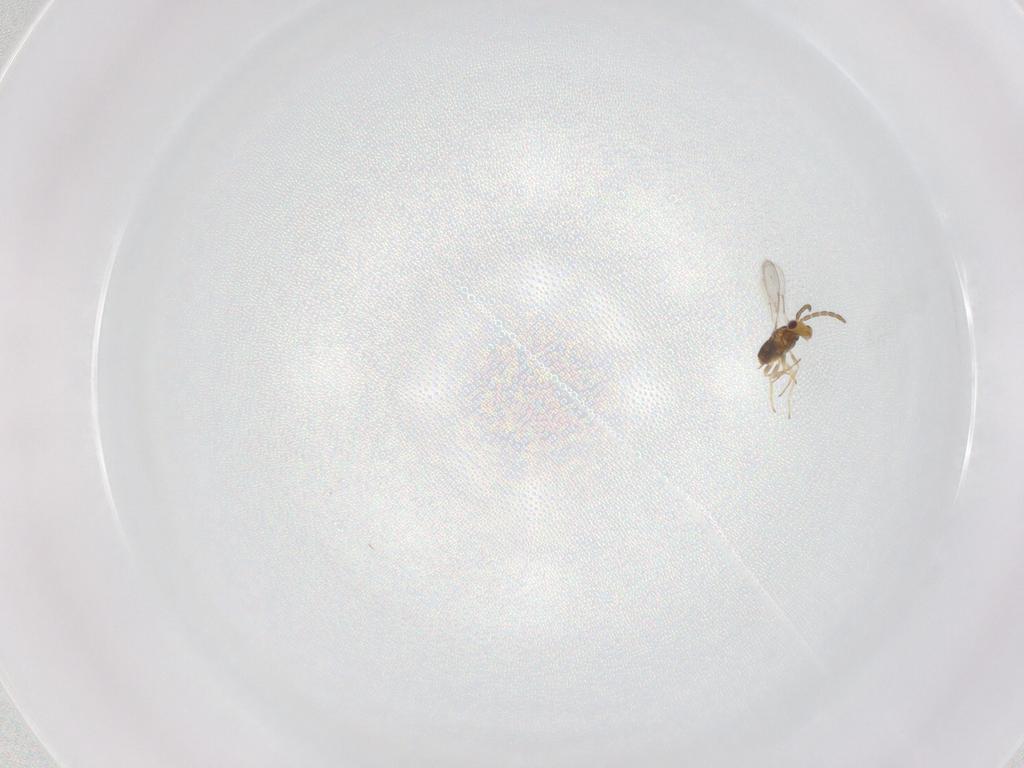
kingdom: Animalia
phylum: Arthropoda
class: Insecta
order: Hymenoptera
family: Aphelinidae
